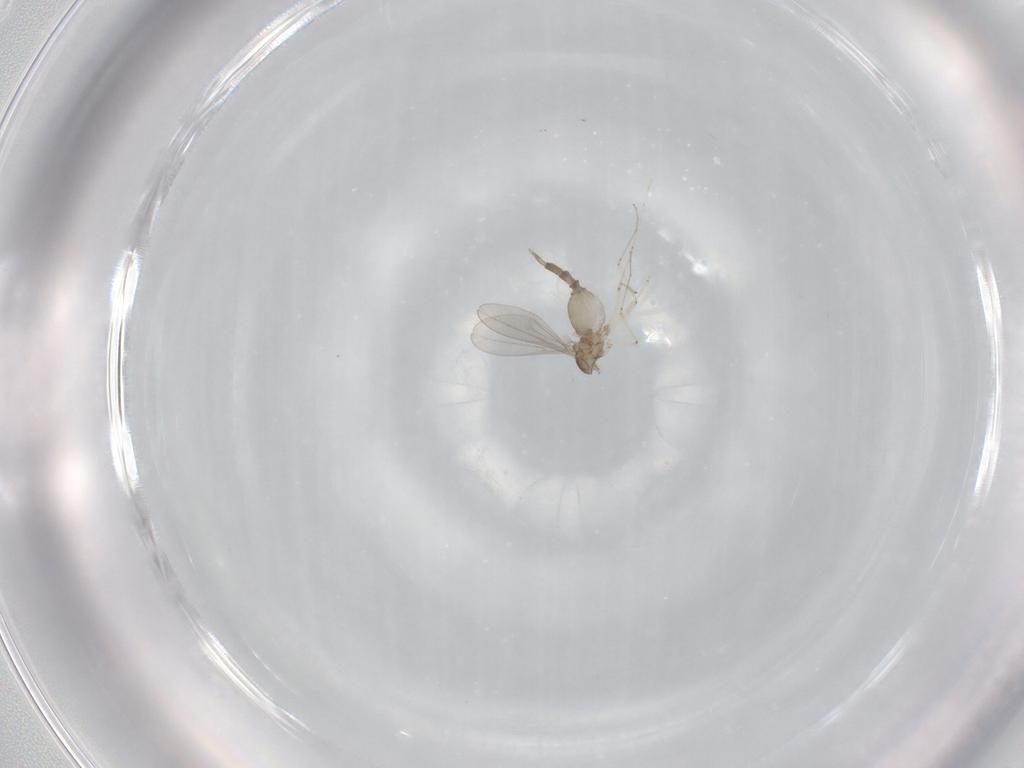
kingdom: Animalia
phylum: Arthropoda
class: Insecta
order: Diptera
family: Cecidomyiidae
